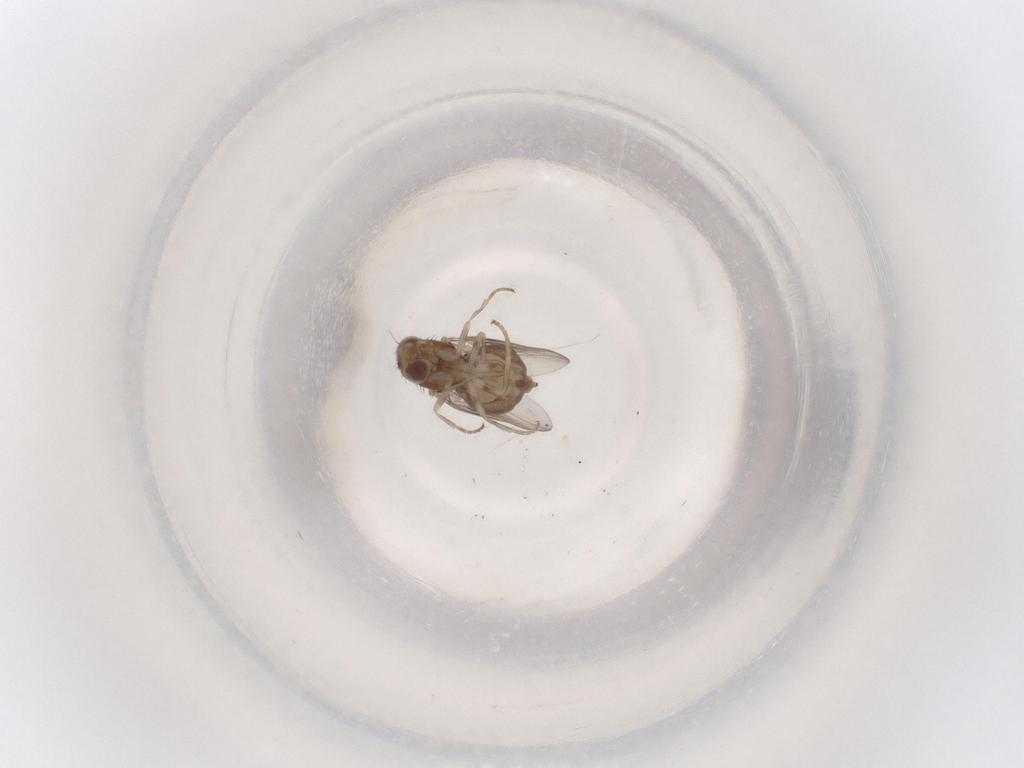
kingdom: Animalia
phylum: Arthropoda
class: Insecta
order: Diptera
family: Chloropidae
